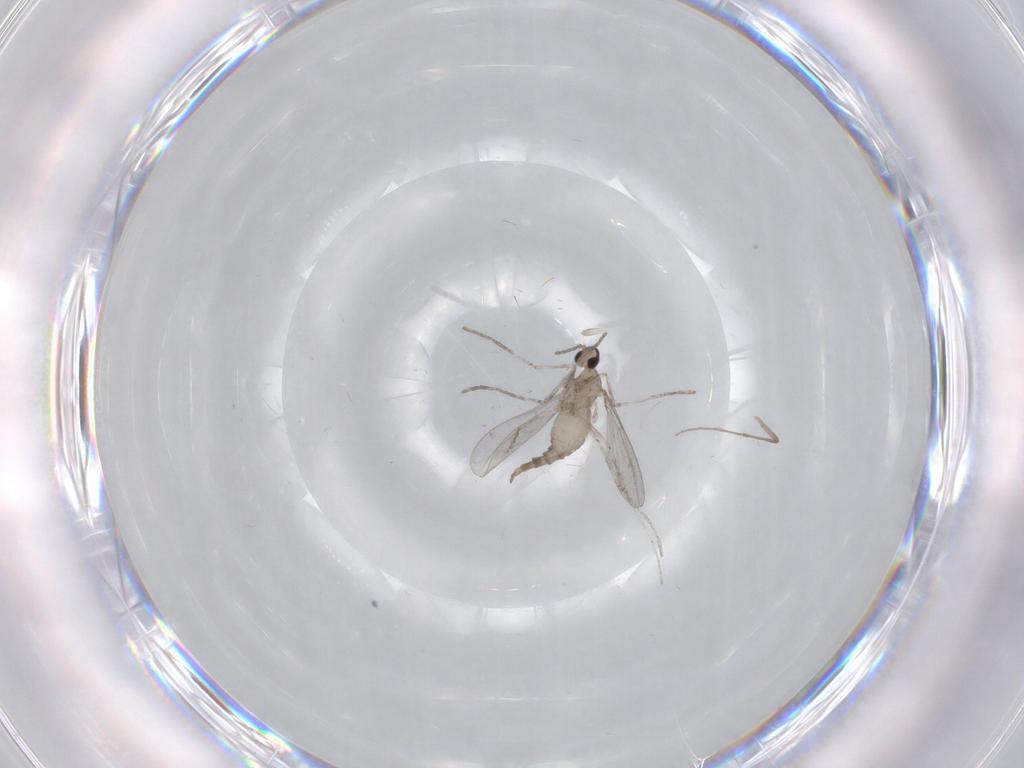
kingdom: Animalia
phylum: Arthropoda
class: Insecta
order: Diptera
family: Cecidomyiidae
